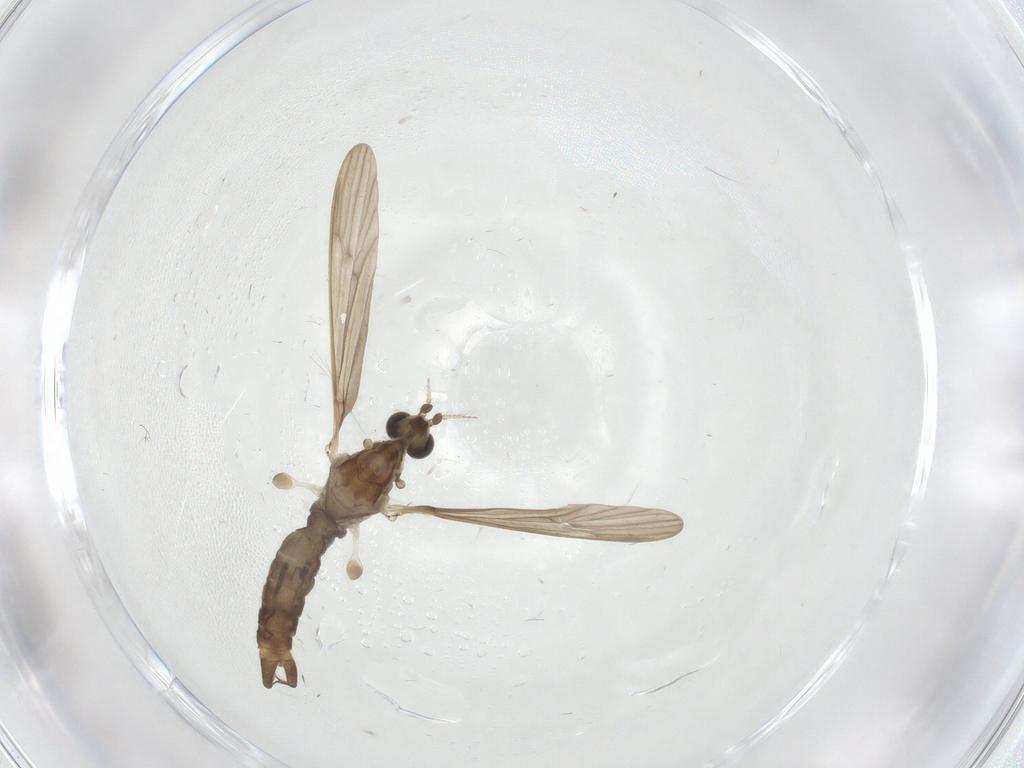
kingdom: Animalia
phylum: Arthropoda
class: Insecta
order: Diptera
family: Limoniidae
